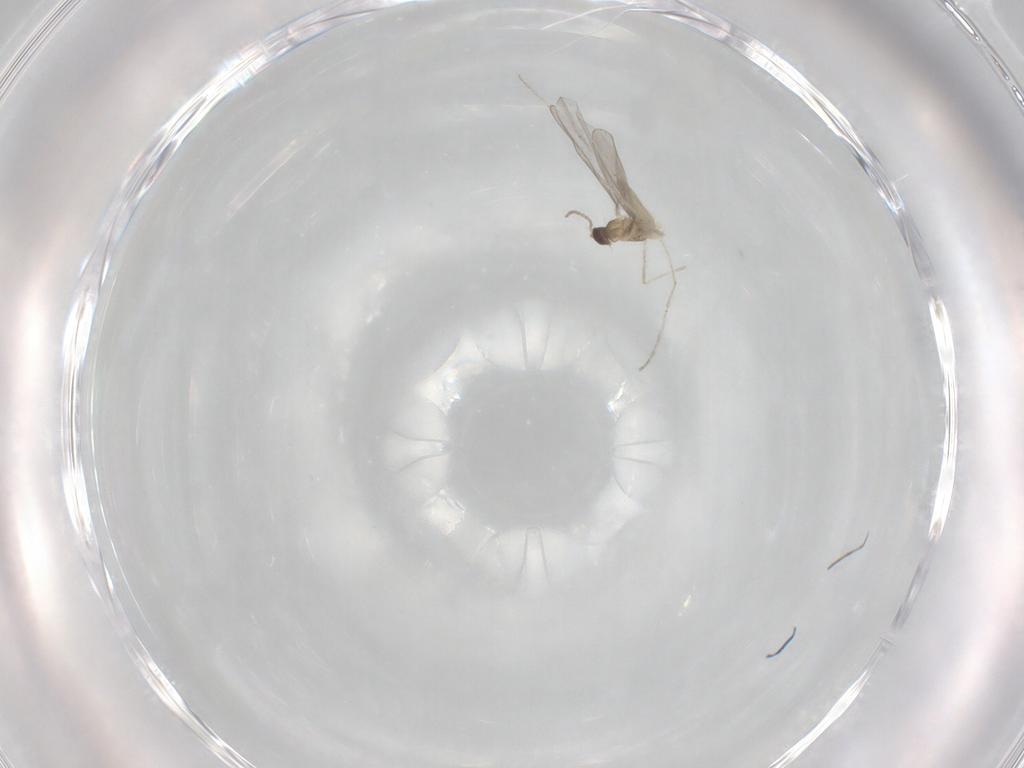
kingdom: Animalia
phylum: Arthropoda
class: Insecta
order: Diptera
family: Cecidomyiidae
